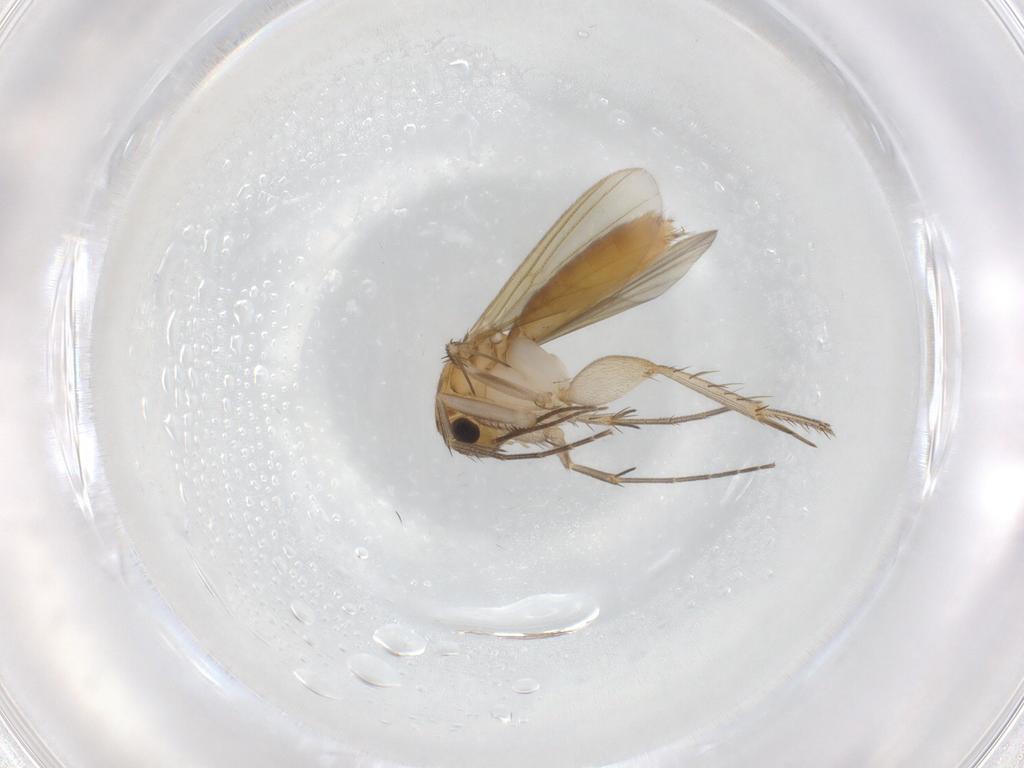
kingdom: Animalia
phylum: Arthropoda
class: Insecta
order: Diptera
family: Mycetophilidae
